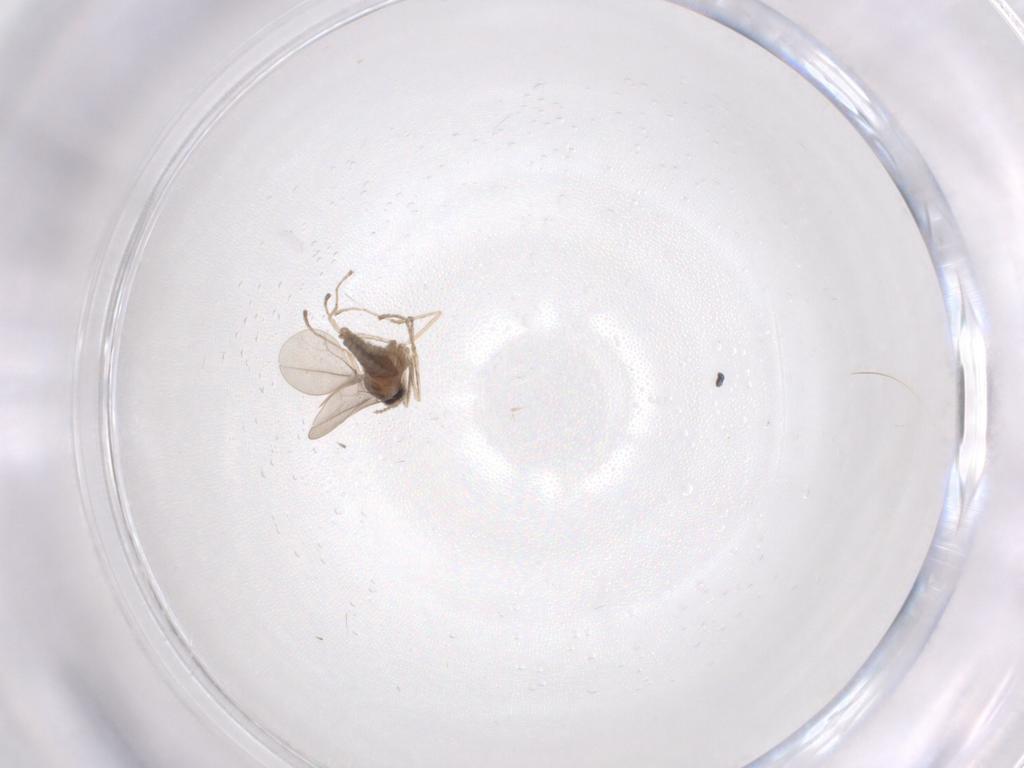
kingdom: Animalia
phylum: Arthropoda
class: Insecta
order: Diptera
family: Cecidomyiidae
